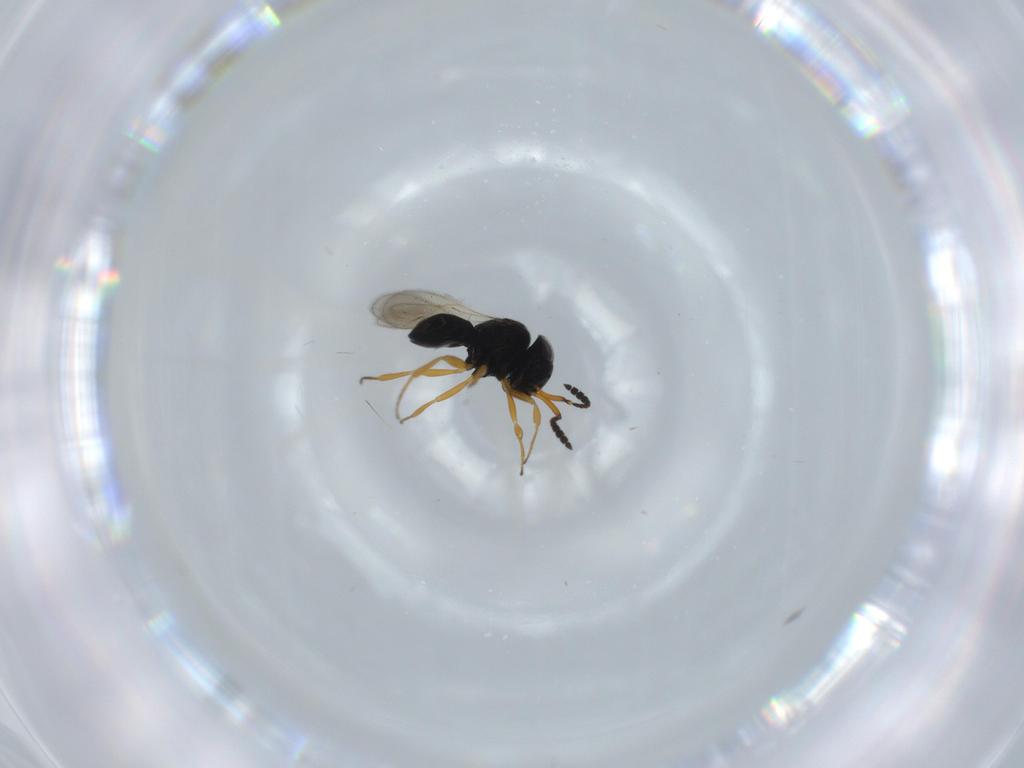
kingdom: Animalia
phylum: Arthropoda
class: Insecta
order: Hymenoptera
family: Scelionidae
